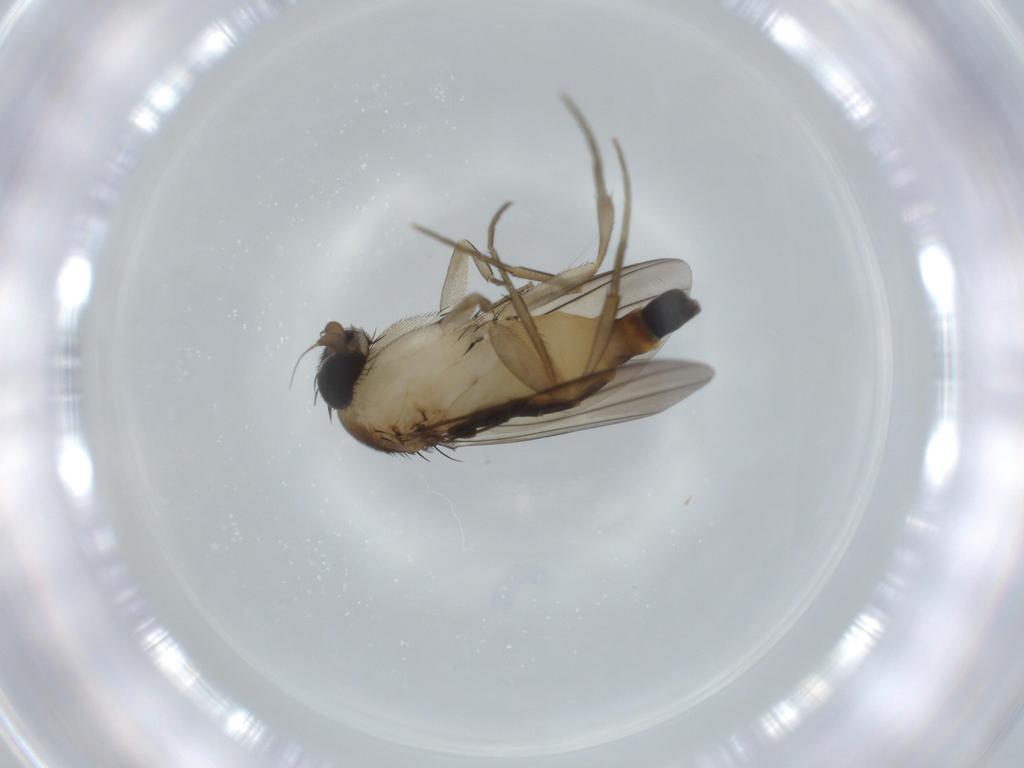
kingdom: Animalia
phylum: Arthropoda
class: Insecta
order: Diptera
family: Phoridae
